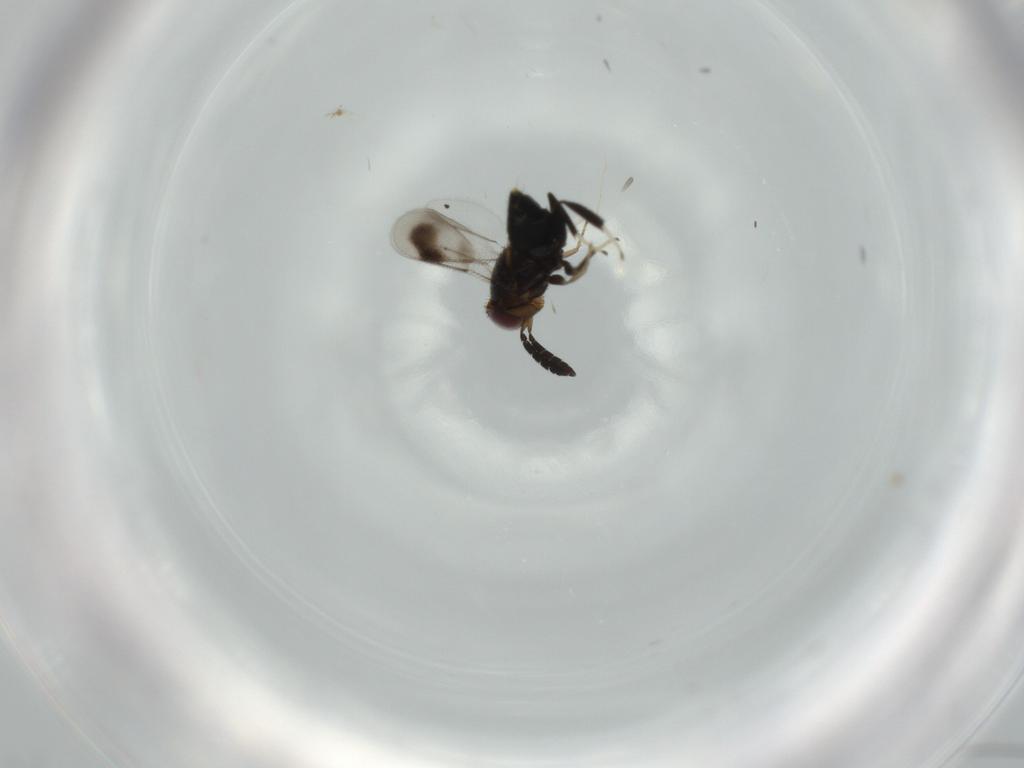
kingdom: Animalia
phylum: Arthropoda
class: Insecta
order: Hymenoptera
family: Aphelinidae
